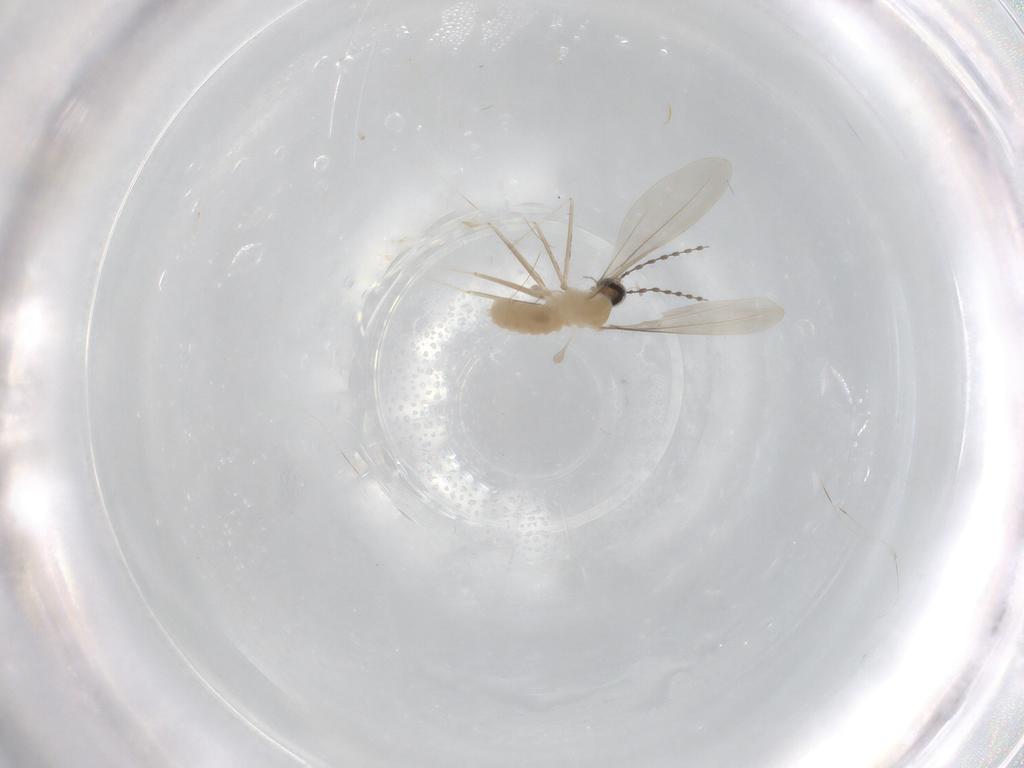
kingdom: Animalia
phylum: Arthropoda
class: Insecta
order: Diptera
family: Cecidomyiidae
